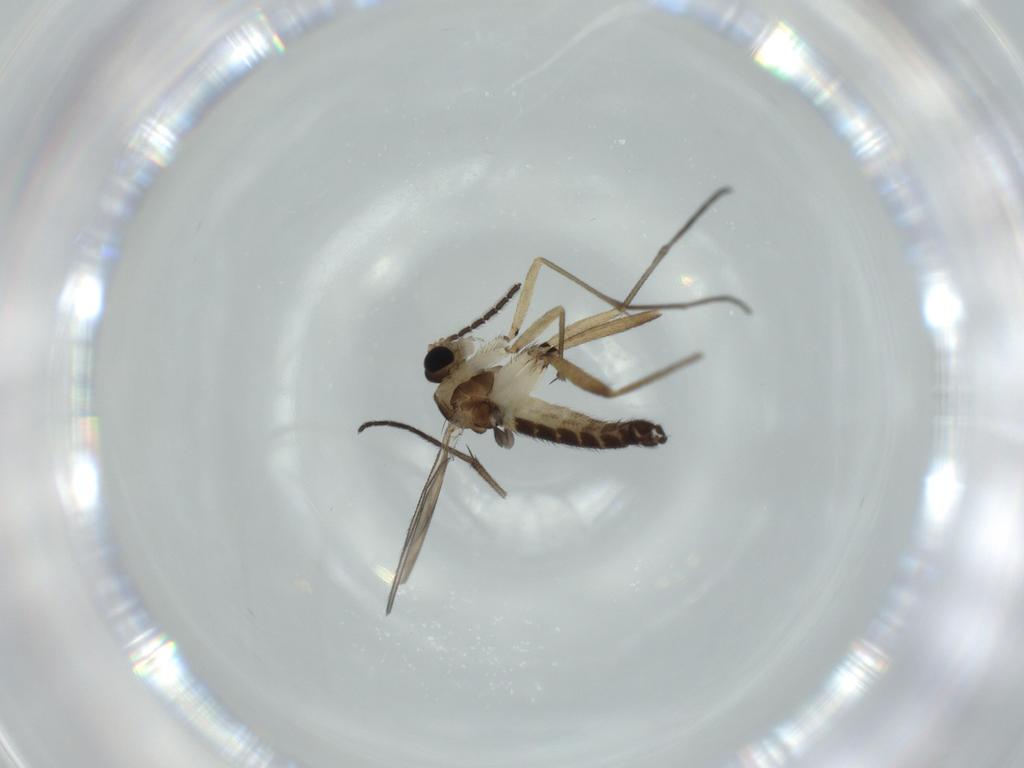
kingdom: Animalia
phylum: Arthropoda
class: Insecta
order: Diptera
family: Sciaridae
